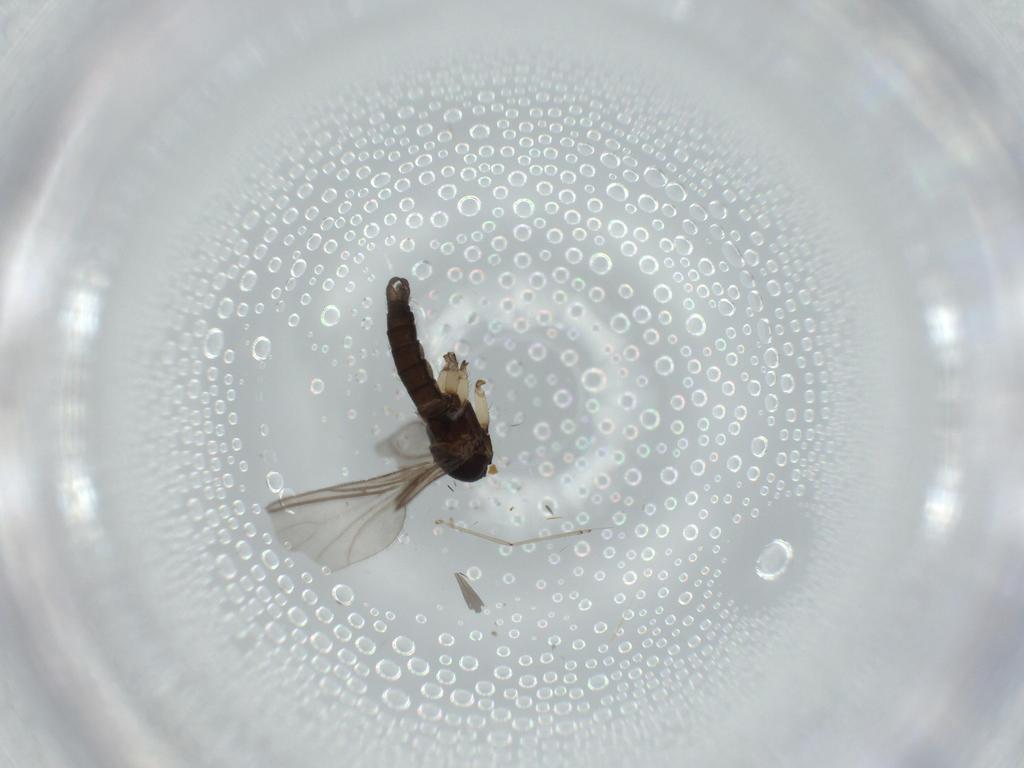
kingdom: Animalia
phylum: Arthropoda
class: Insecta
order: Diptera
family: Sciaridae
